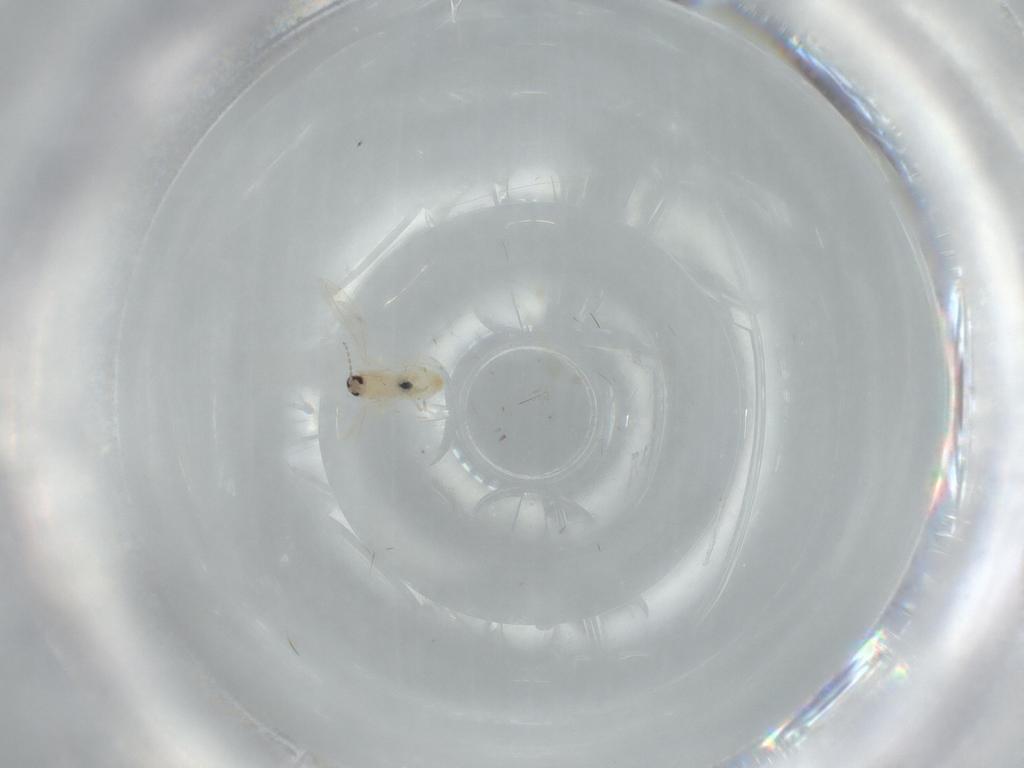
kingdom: Animalia
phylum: Arthropoda
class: Insecta
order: Diptera
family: Cecidomyiidae
